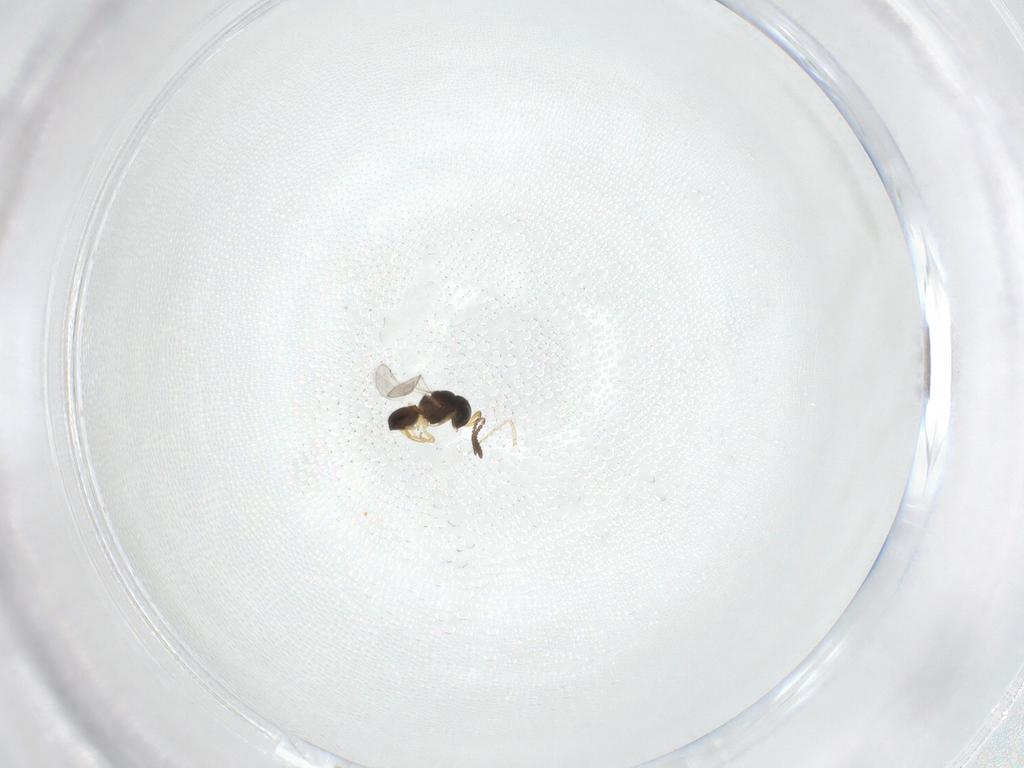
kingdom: Animalia
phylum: Arthropoda
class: Insecta
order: Hymenoptera
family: Scelionidae
